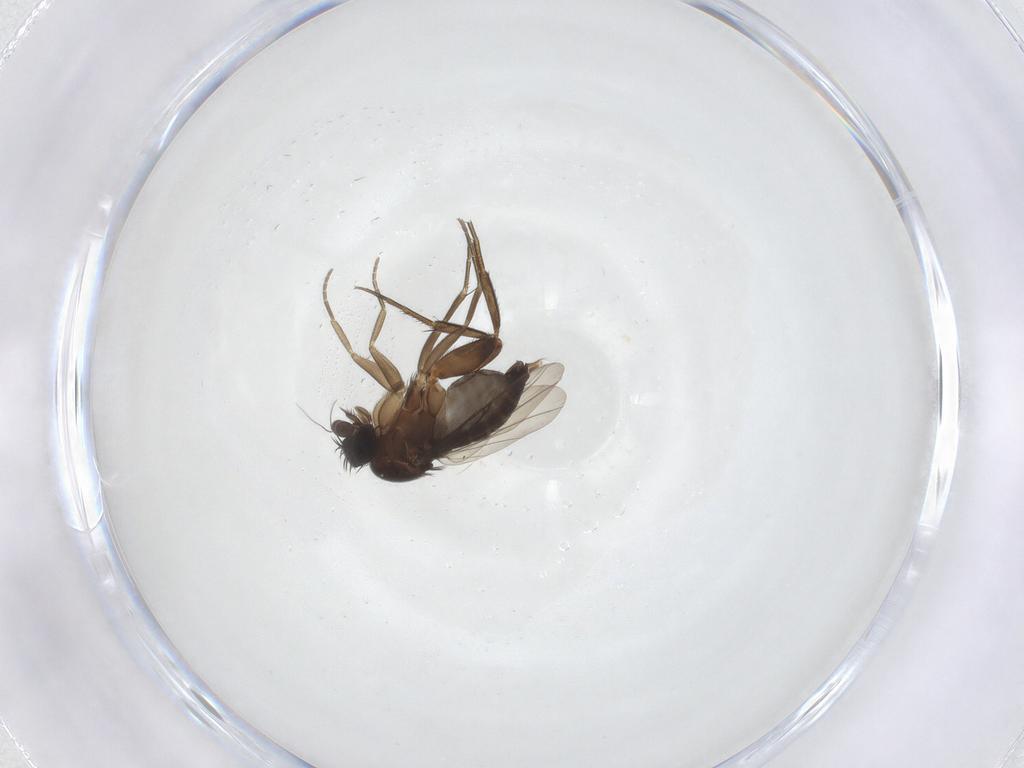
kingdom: Animalia
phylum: Arthropoda
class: Insecta
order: Diptera
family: Phoridae
